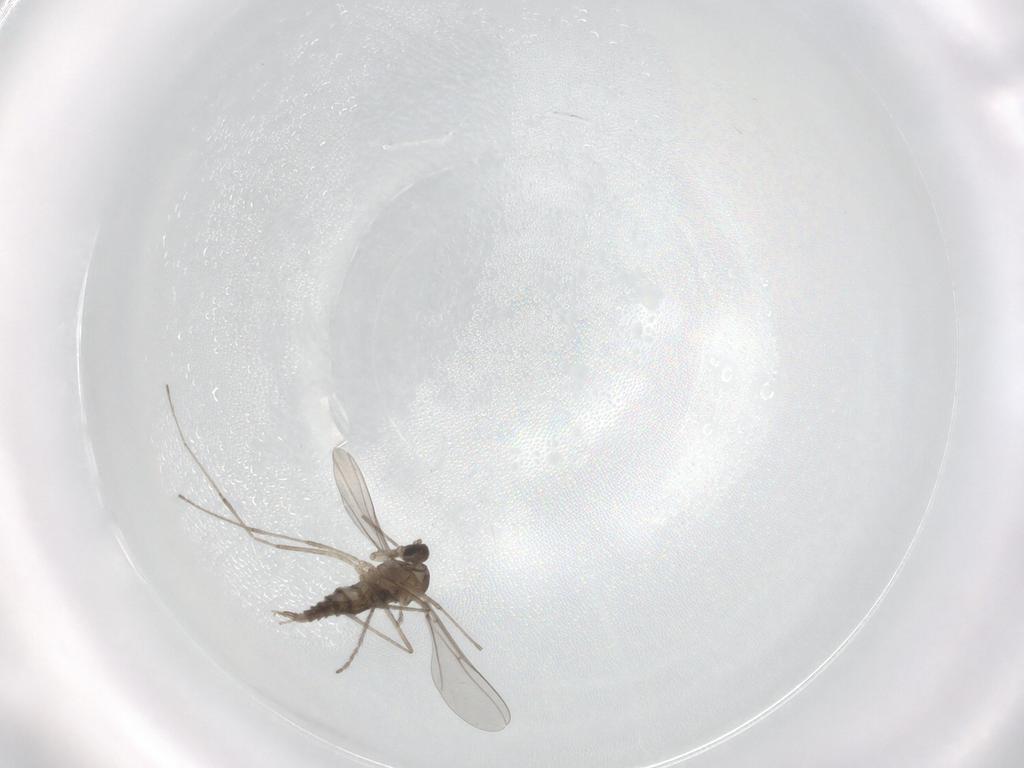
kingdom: Animalia
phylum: Arthropoda
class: Insecta
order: Diptera
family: Cecidomyiidae
